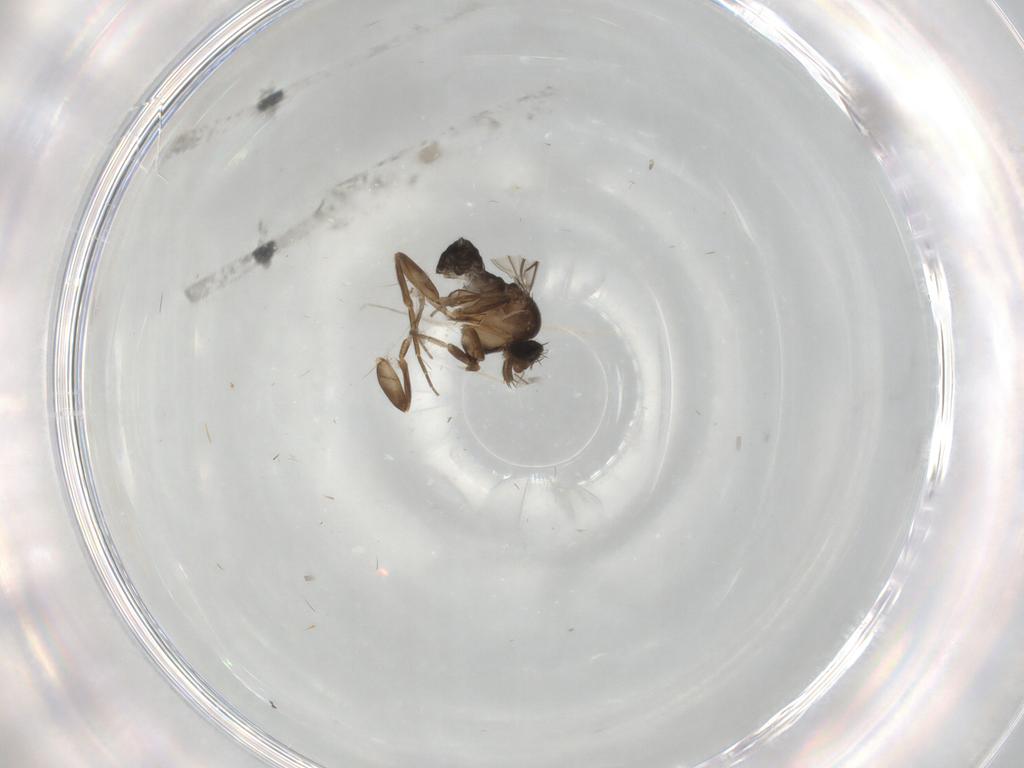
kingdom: Animalia
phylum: Arthropoda
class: Insecta
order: Diptera
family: Phoridae
